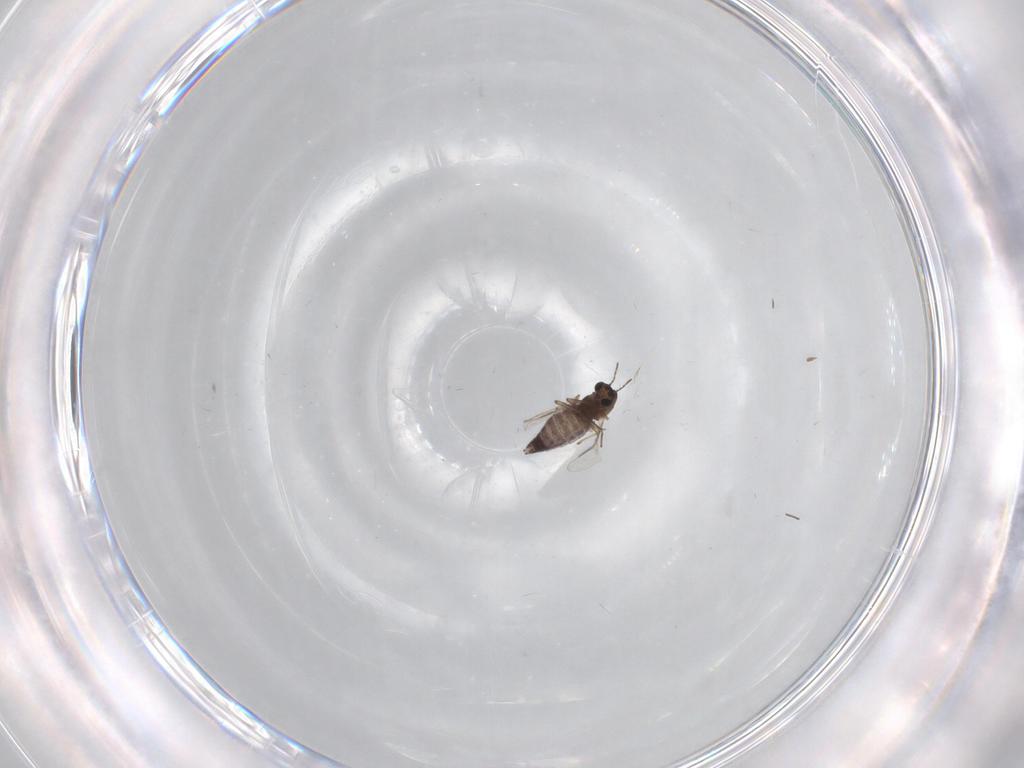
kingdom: Animalia
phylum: Arthropoda
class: Insecta
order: Diptera
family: Chironomidae
